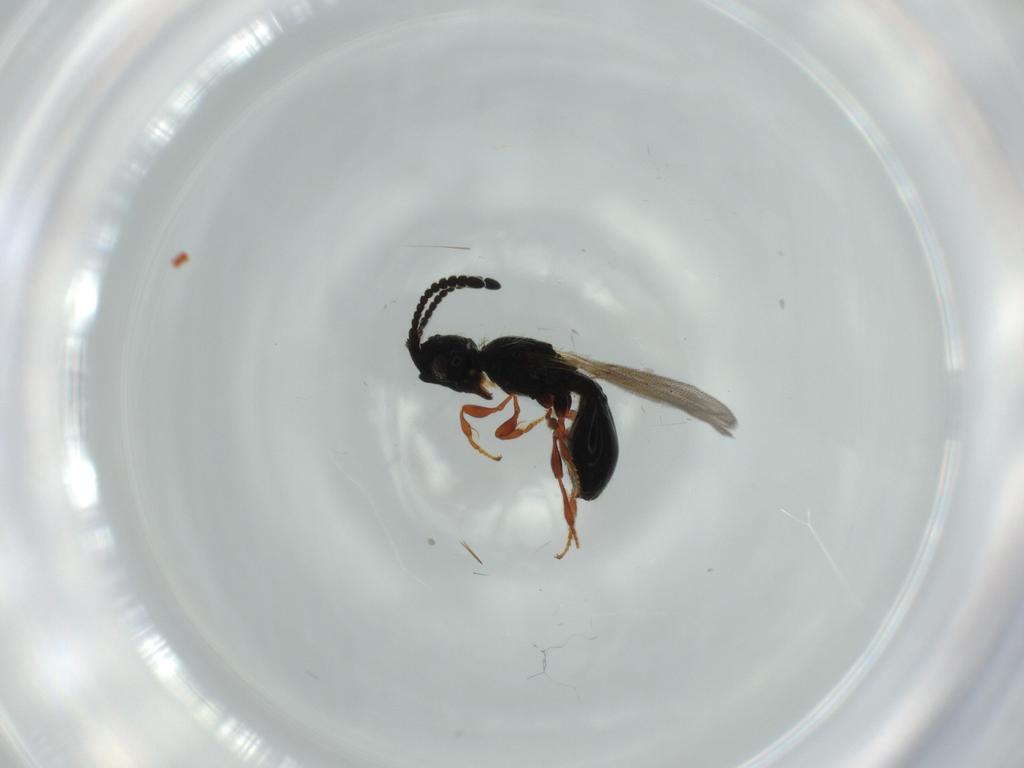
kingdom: Animalia
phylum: Arthropoda
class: Insecta
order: Hymenoptera
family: Diapriidae
